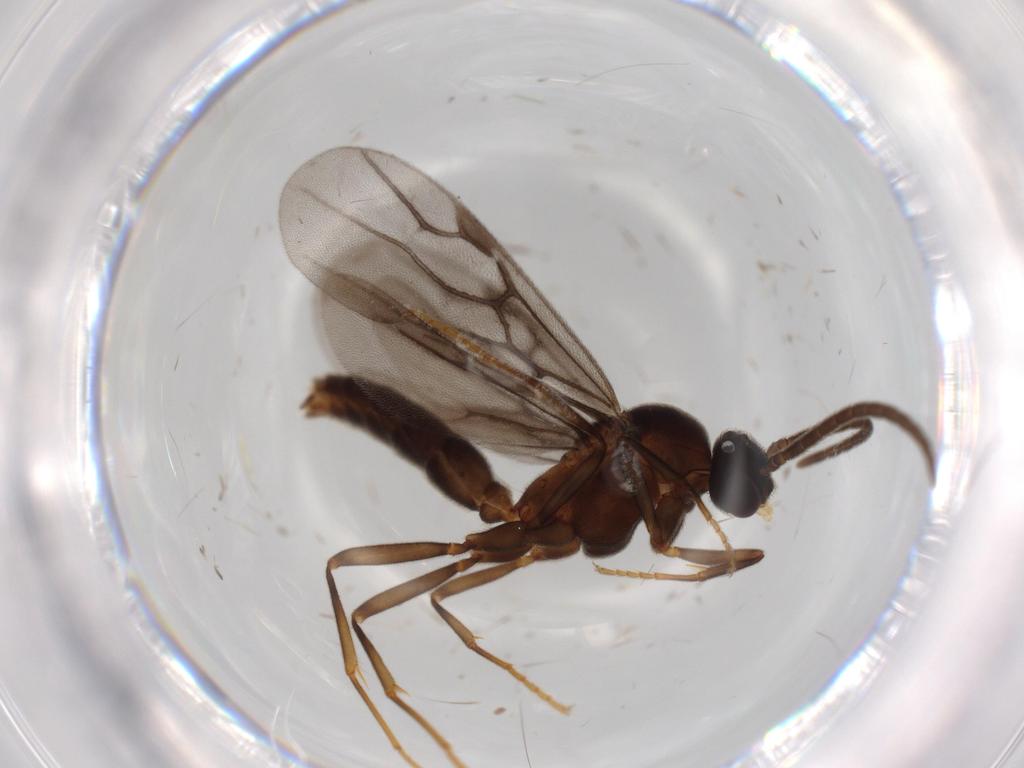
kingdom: Animalia
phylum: Arthropoda
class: Insecta
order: Hymenoptera
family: Formicidae
